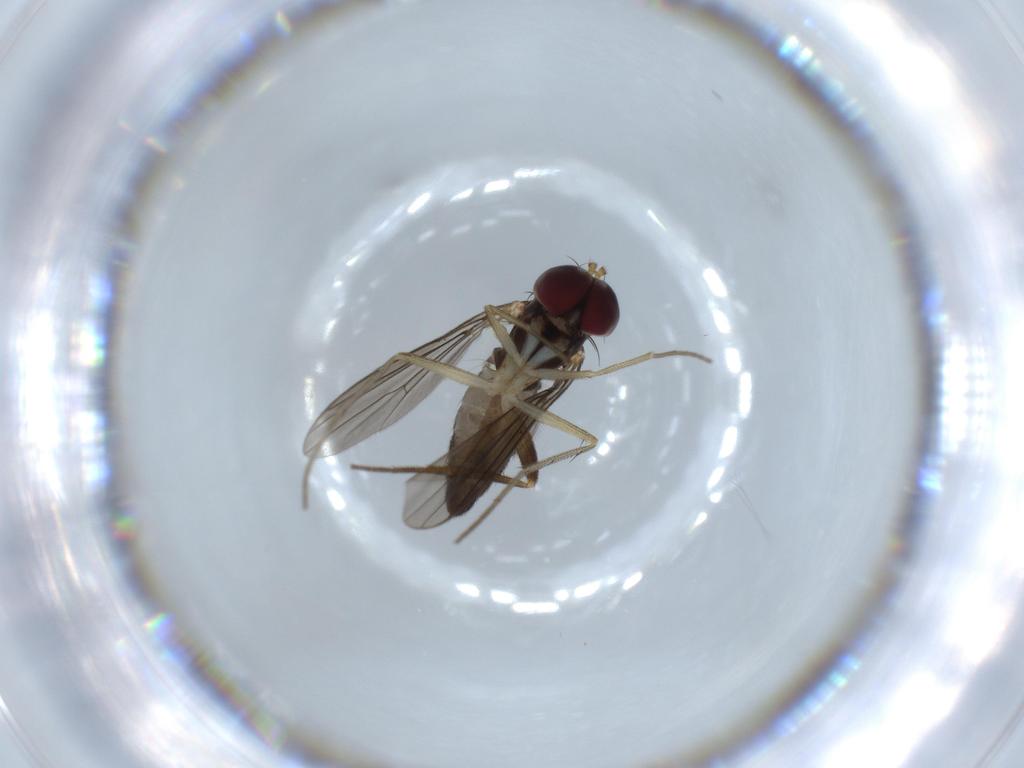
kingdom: Animalia
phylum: Arthropoda
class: Insecta
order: Diptera
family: Dolichopodidae
